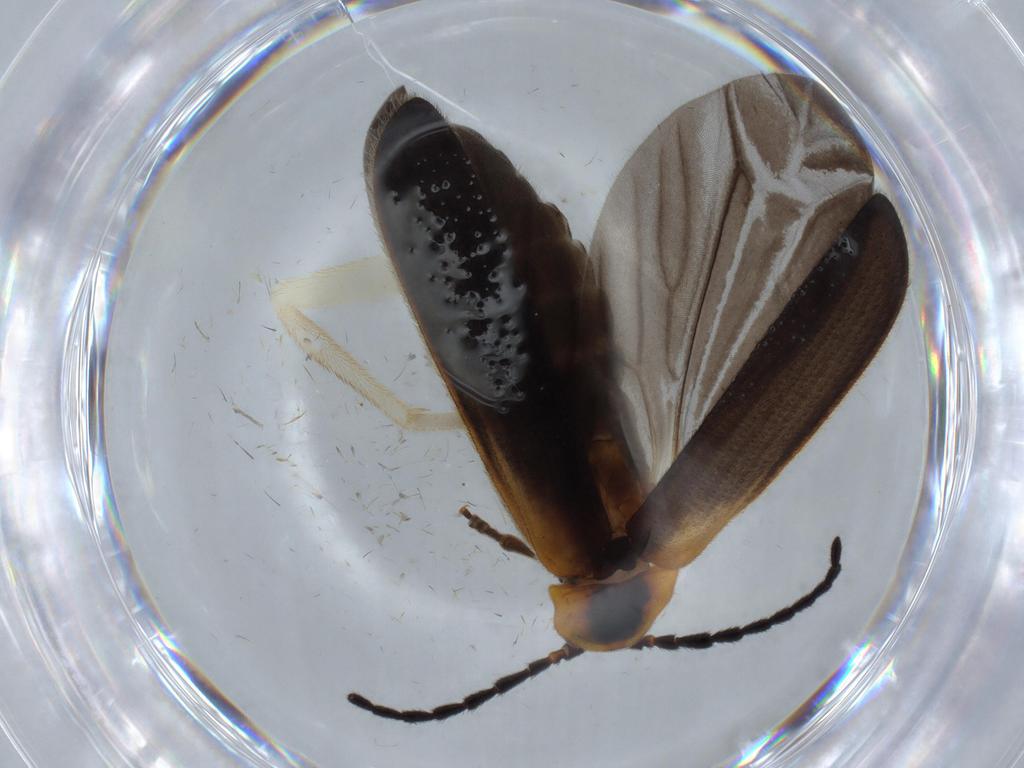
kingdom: Animalia
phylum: Arthropoda
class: Insecta
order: Coleoptera
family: Lycidae
